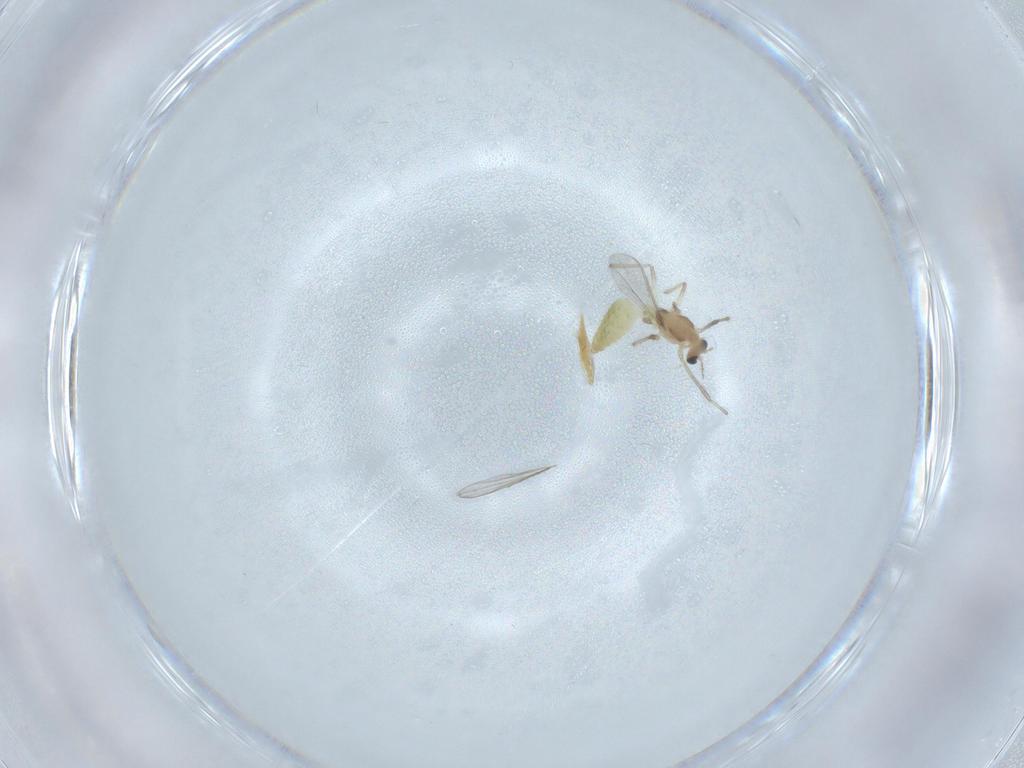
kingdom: Animalia
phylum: Arthropoda
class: Insecta
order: Diptera
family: Chironomidae
